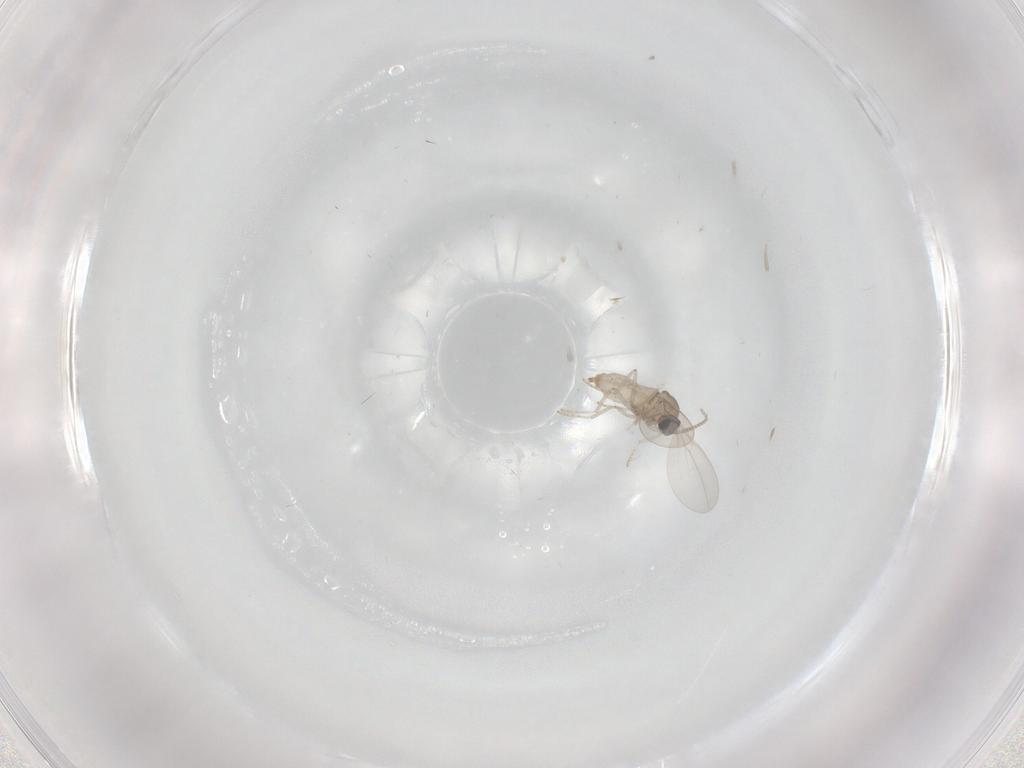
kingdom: Animalia
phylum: Arthropoda
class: Insecta
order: Diptera
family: Cecidomyiidae
